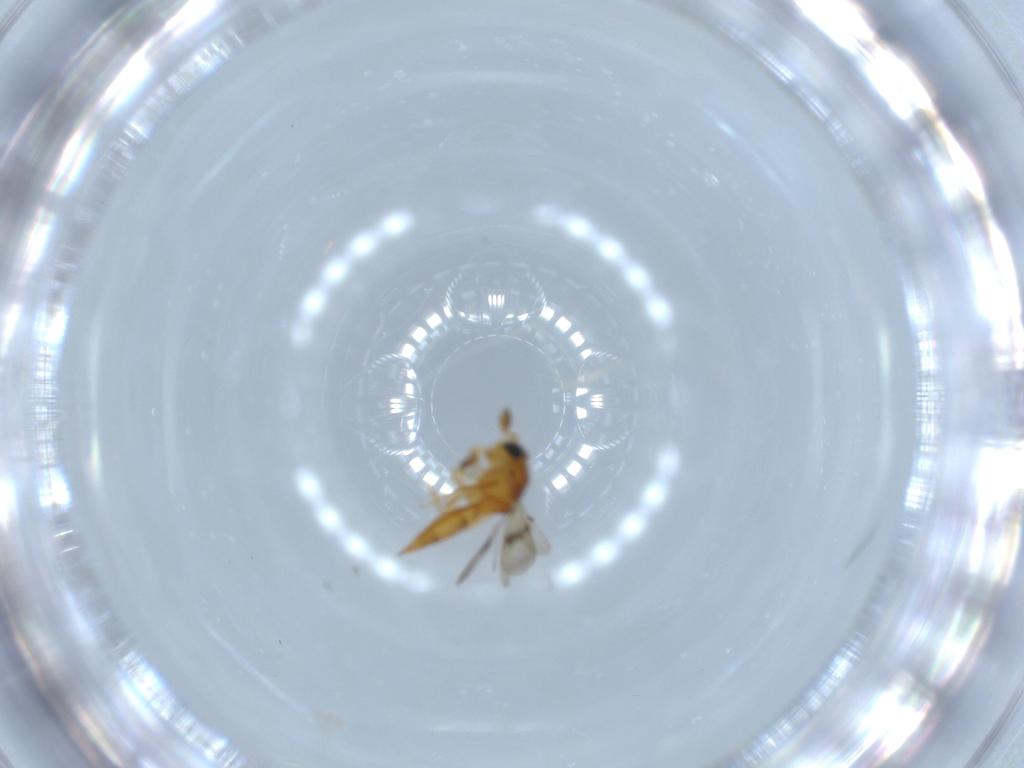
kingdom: Animalia
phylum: Arthropoda
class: Insecta
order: Hymenoptera
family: Scelionidae
